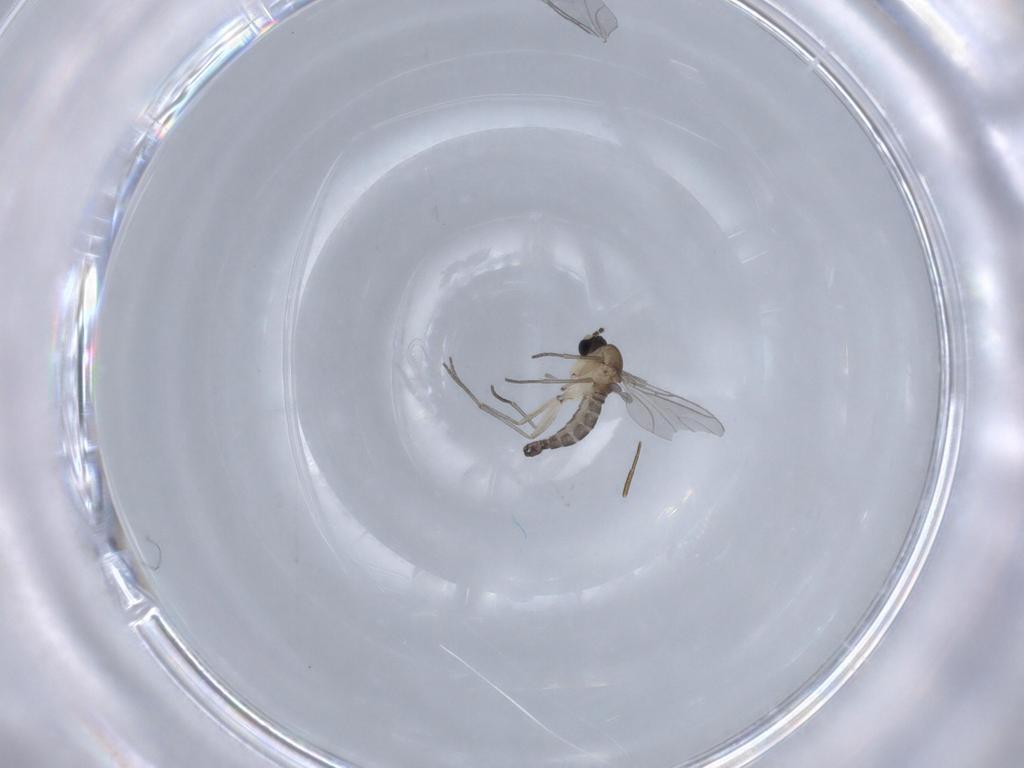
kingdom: Animalia
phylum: Arthropoda
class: Insecta
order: Diptera
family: Sciaridae
